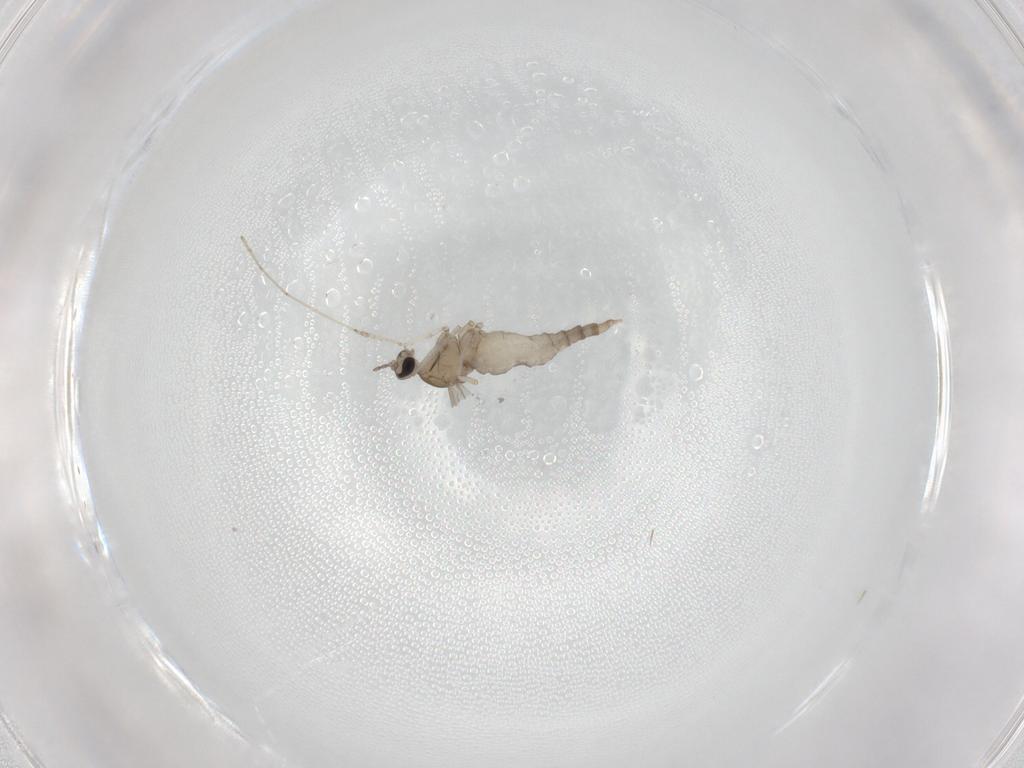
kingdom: Animalia
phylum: Arthropoda
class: Insecta
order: Diptera
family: Cecidomyiidae
